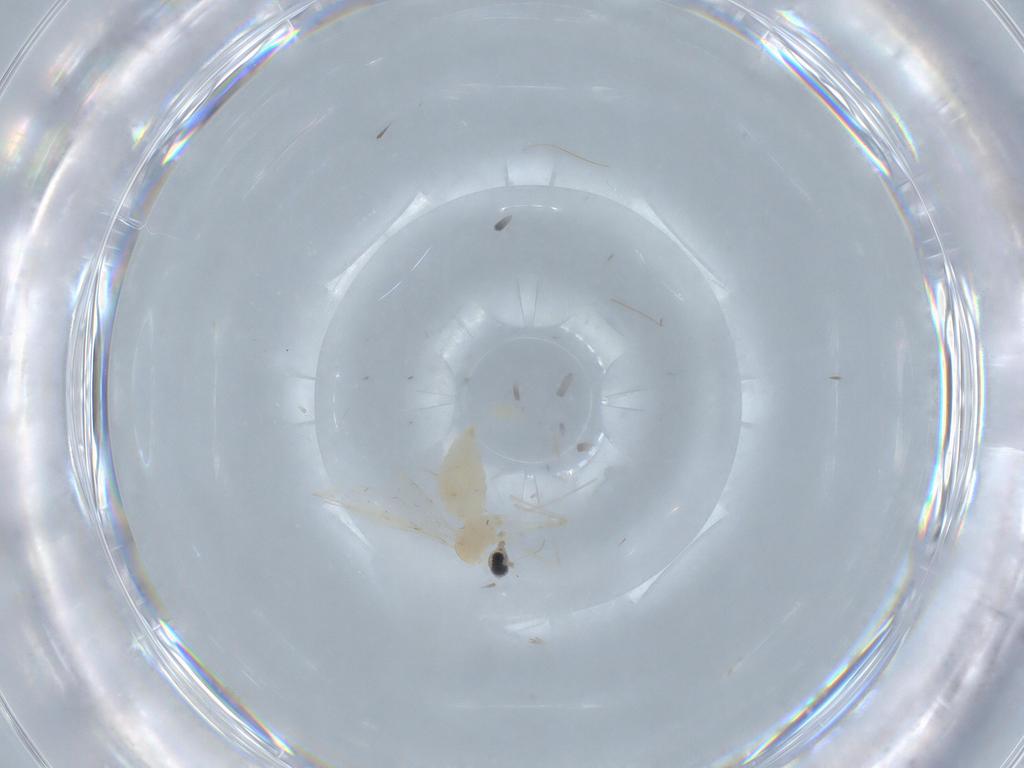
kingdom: Animalia
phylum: Arthropoda
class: Insecta
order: Diptera
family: Cecidomyiidae
